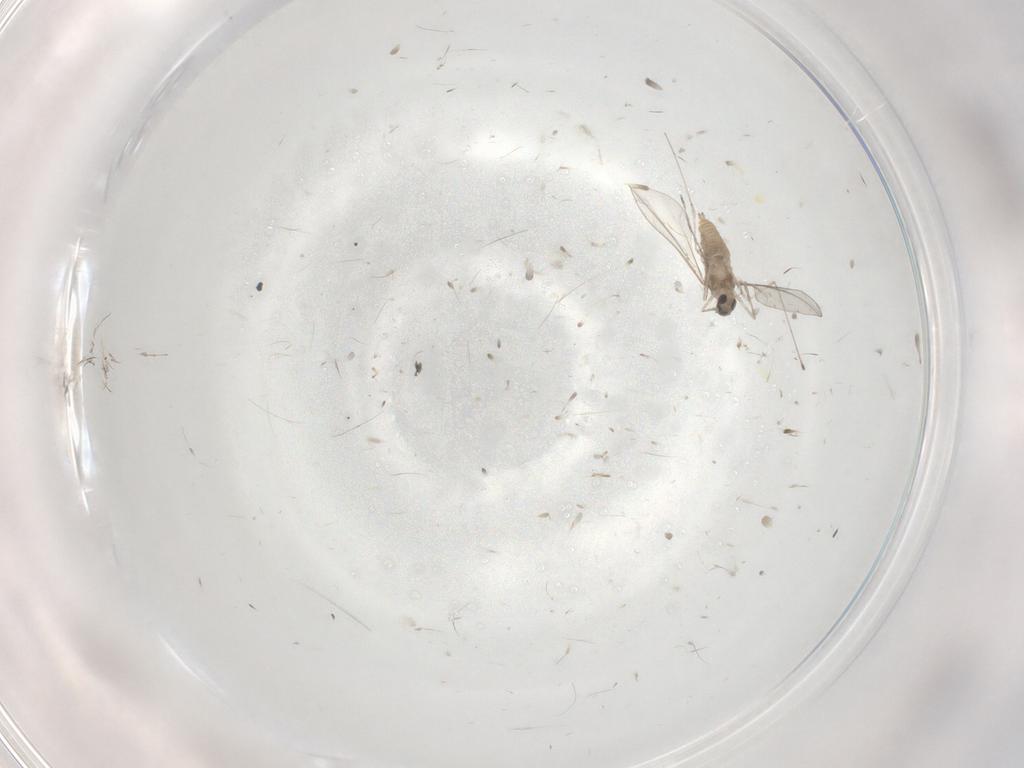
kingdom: Animalia
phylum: Arthropoda
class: Insecta
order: Diptera
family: Cecidomyiidae
